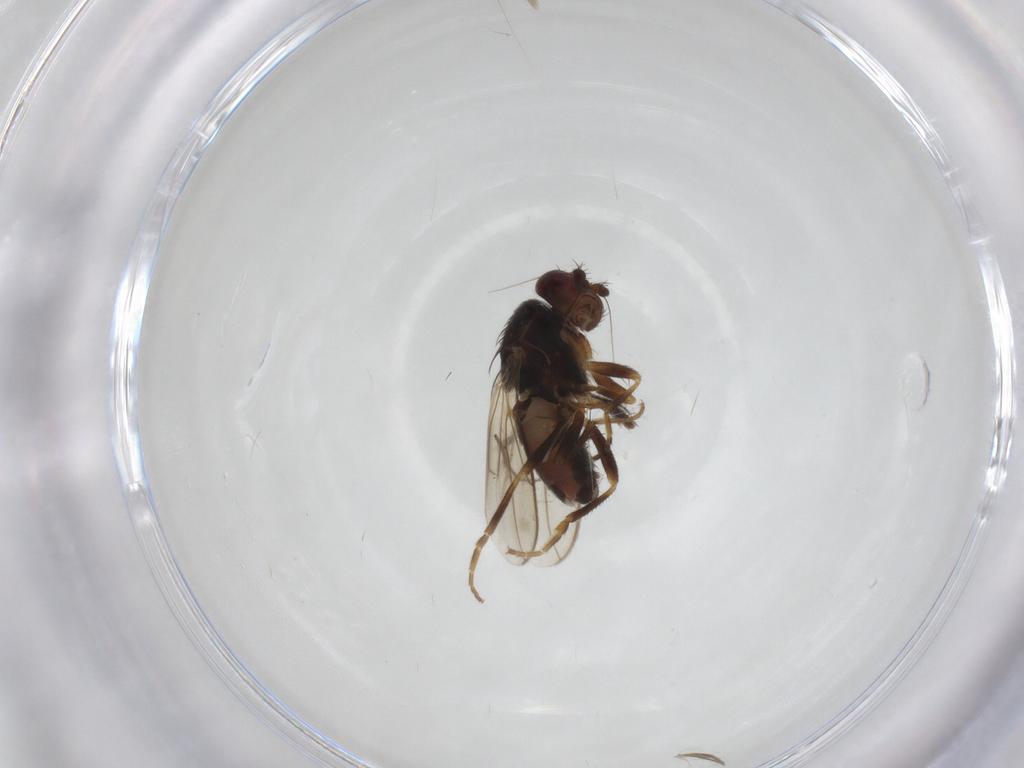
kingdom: Animalia
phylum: Arthropoda
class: Insecta
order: Diptera
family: Sphaeroceridae
